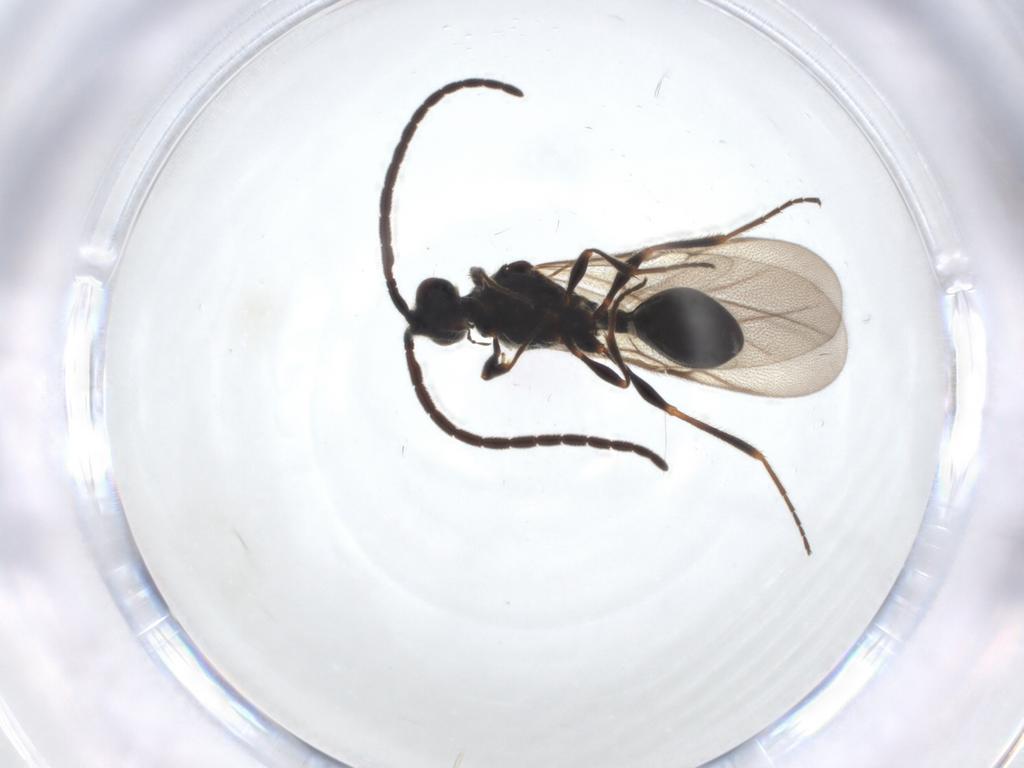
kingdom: Animalia
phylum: Arthropoda
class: Insecta
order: Hymenoptera
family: Diapriidae
